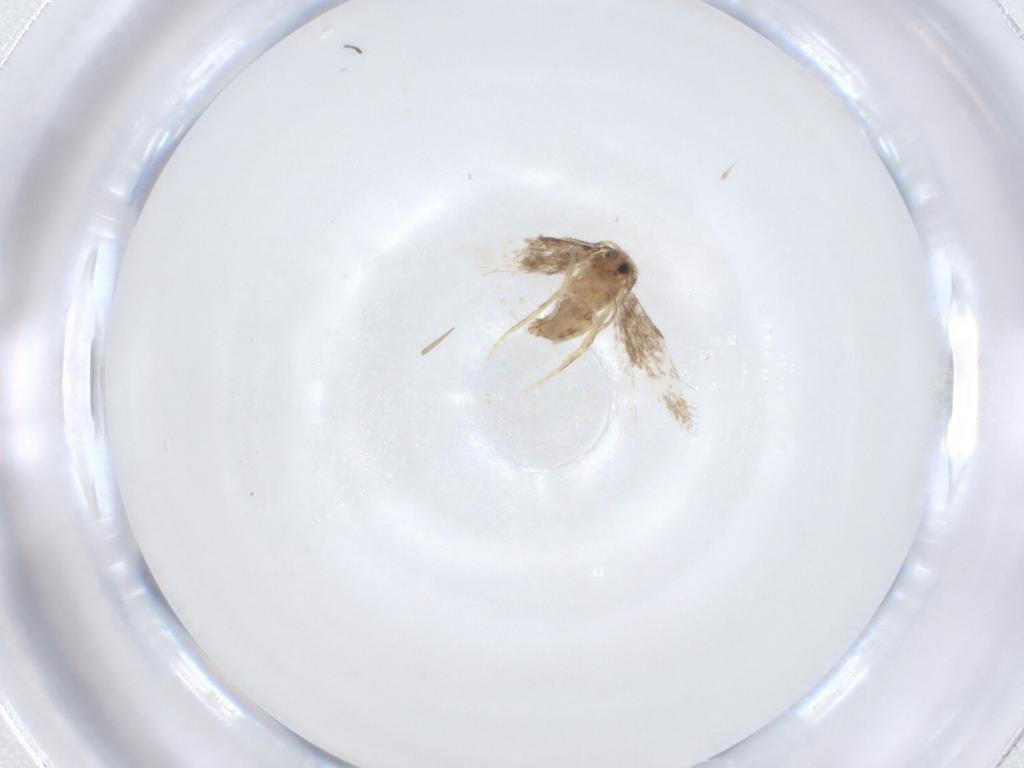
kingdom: Animalia
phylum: Arthropoda
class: Insecta
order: Lepidoptera
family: Nepticulidae
